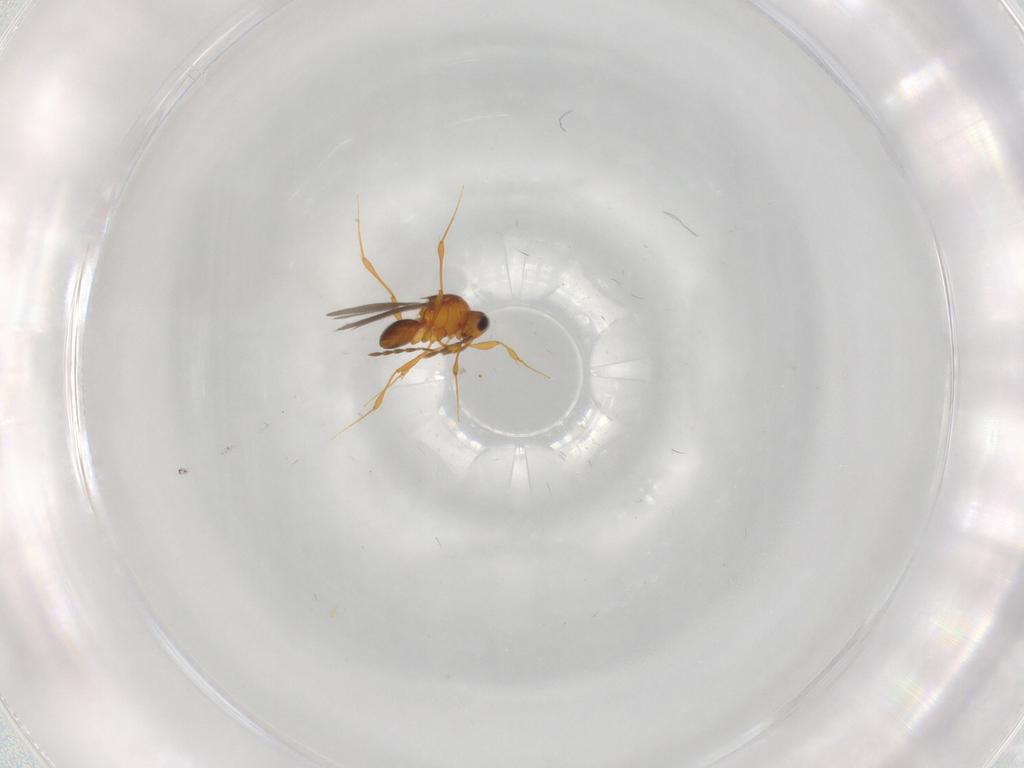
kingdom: Animalia
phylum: Arthropoda
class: Insecta
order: Hymenoptera
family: Platygastridae
